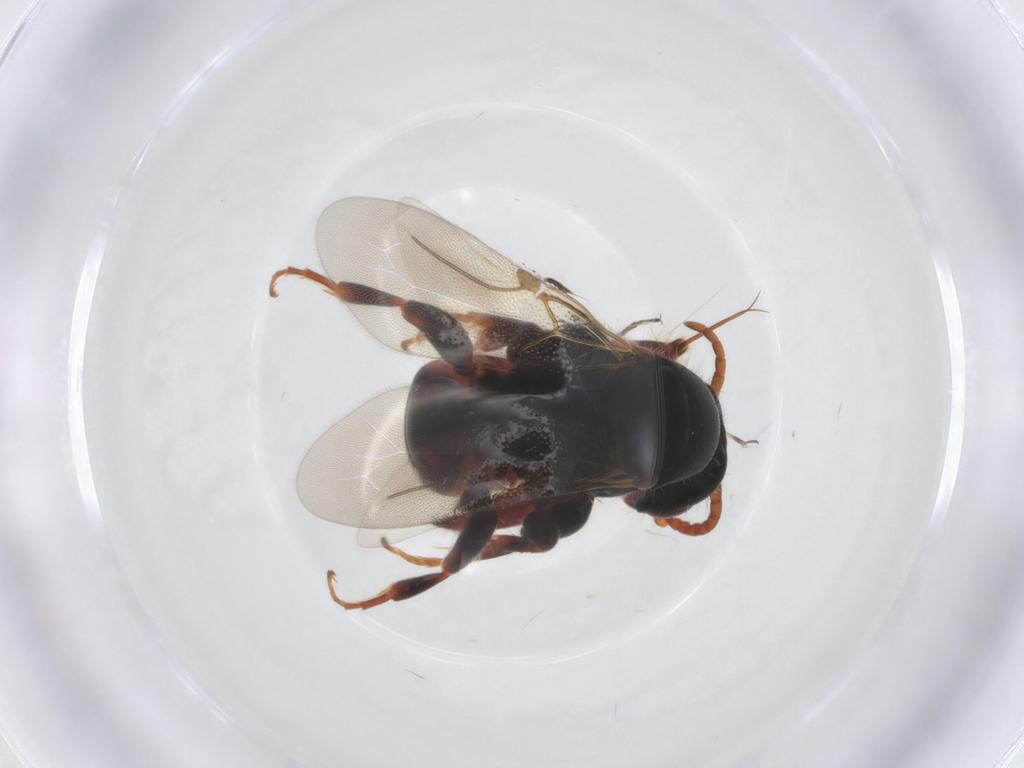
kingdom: Animalia
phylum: Arthropoda
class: Insecta
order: Hymenoptera
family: Bethylidae
